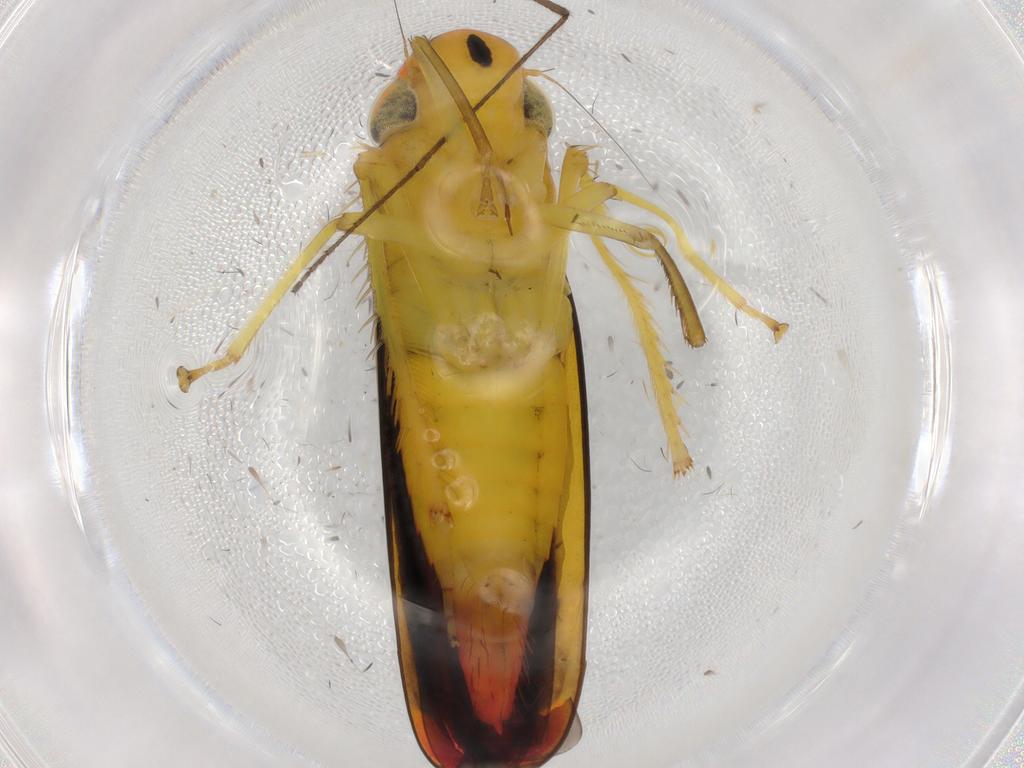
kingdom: Animalia
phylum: Arthropoda
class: Insecta
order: Hemiptera
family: Cicadellidae
